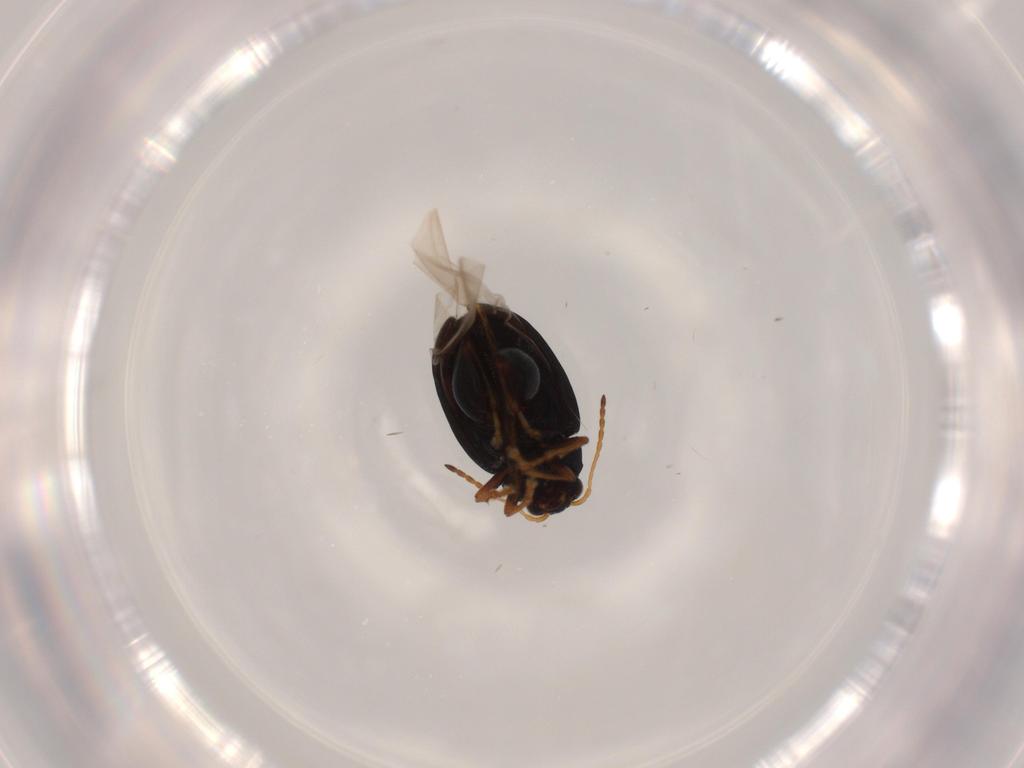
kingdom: Animalia
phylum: Arthropoda
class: Insecta
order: Coleoptera
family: Chrysomelidae
